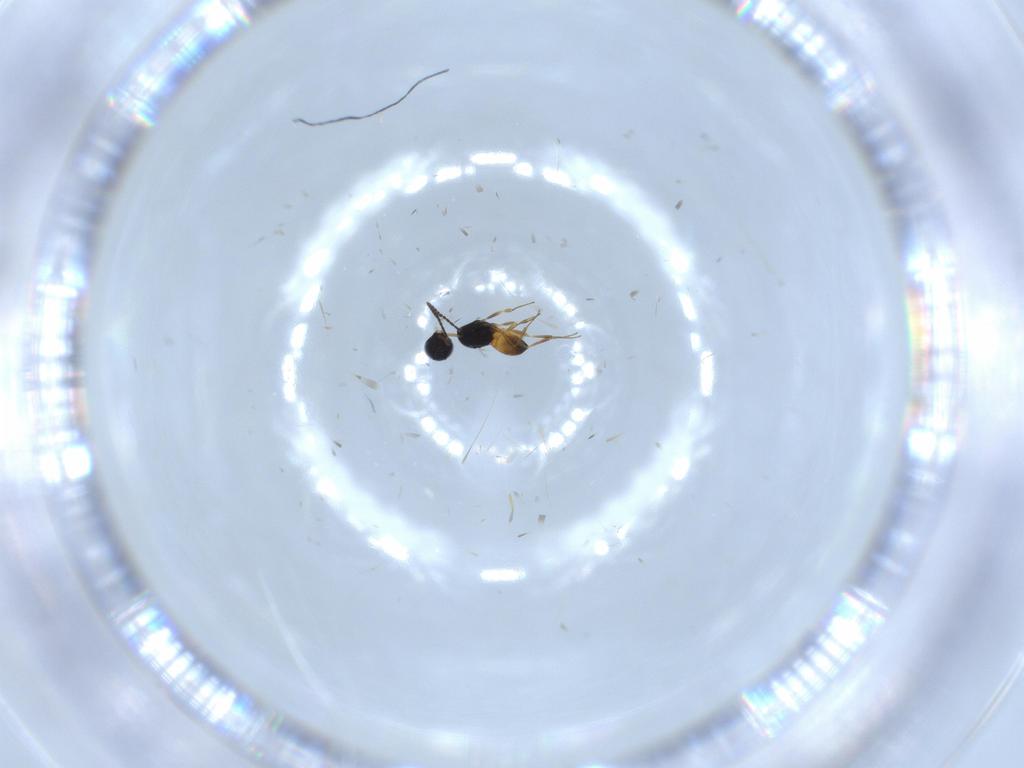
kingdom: Animalia
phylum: Arthropoda
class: Insecta
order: Hymenoptera
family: Scelionidae
